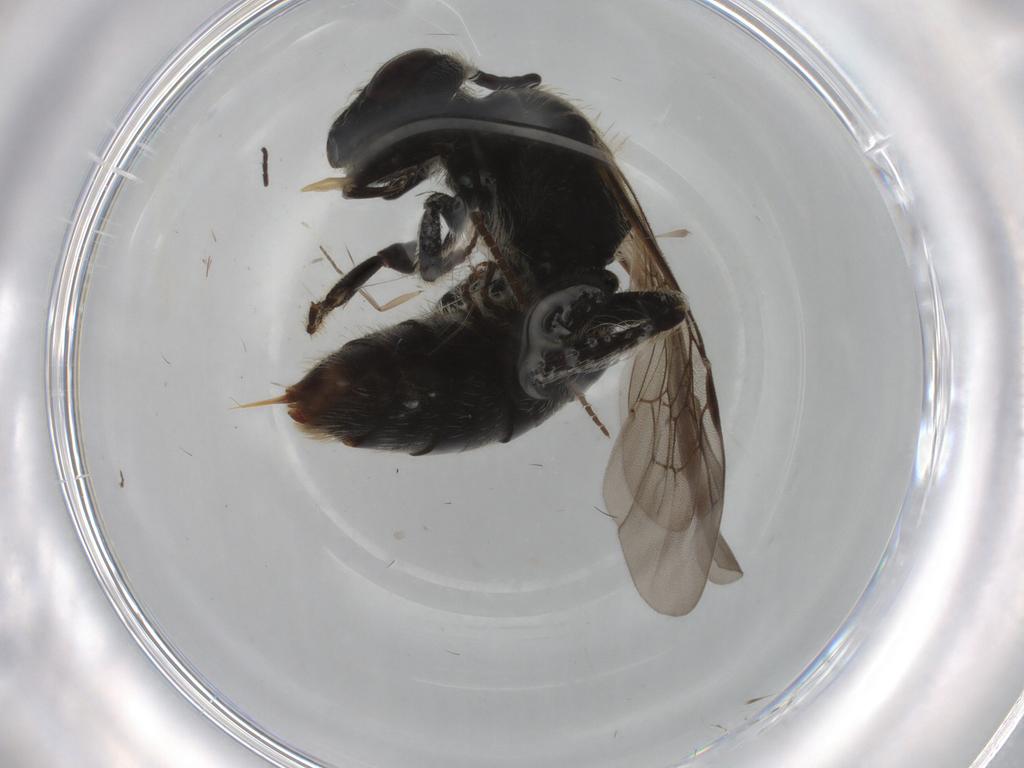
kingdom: Animalia
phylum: Arthropoda
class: Insecta
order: Hymenoptera
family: Andrenidae
